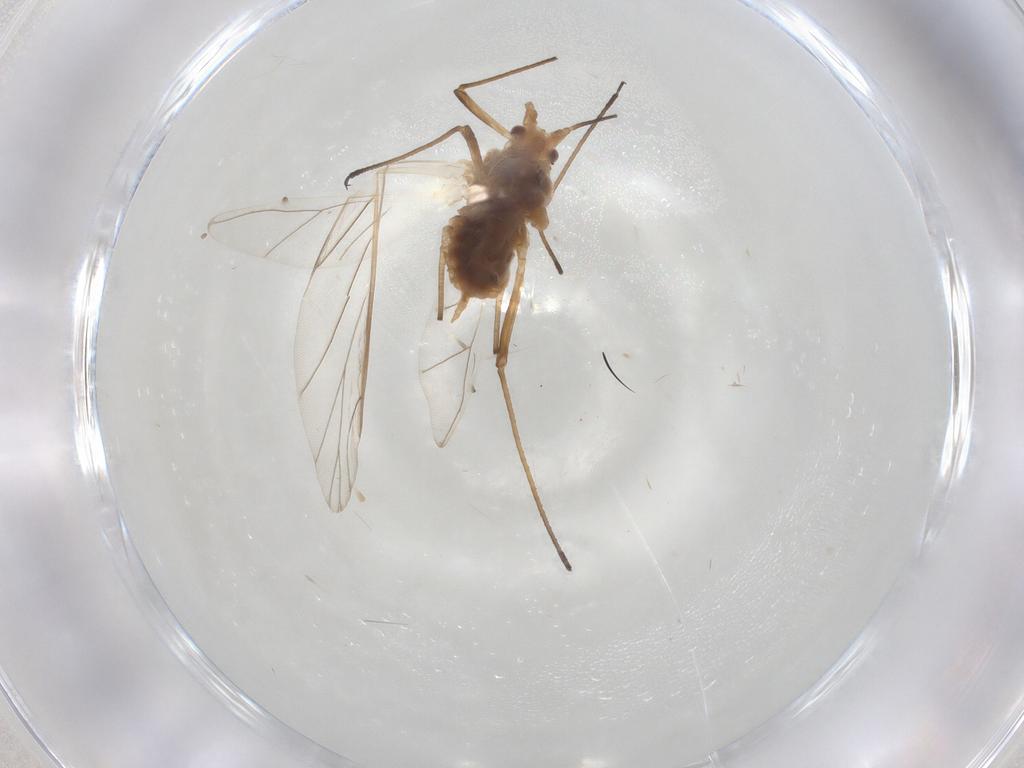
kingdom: Animalia
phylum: Arthropoda
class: Insecta
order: Hemiptera
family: Aphididae
